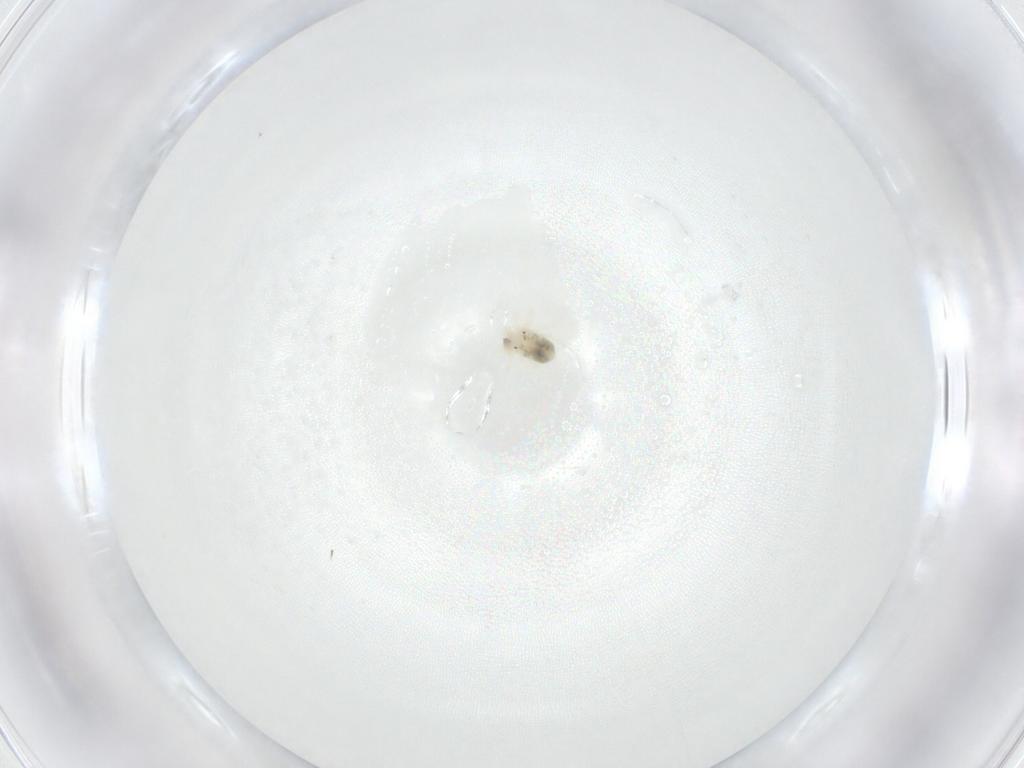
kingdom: Animalia
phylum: Arthropoda
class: Arachnida
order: Trombidiformes
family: Anystidae
